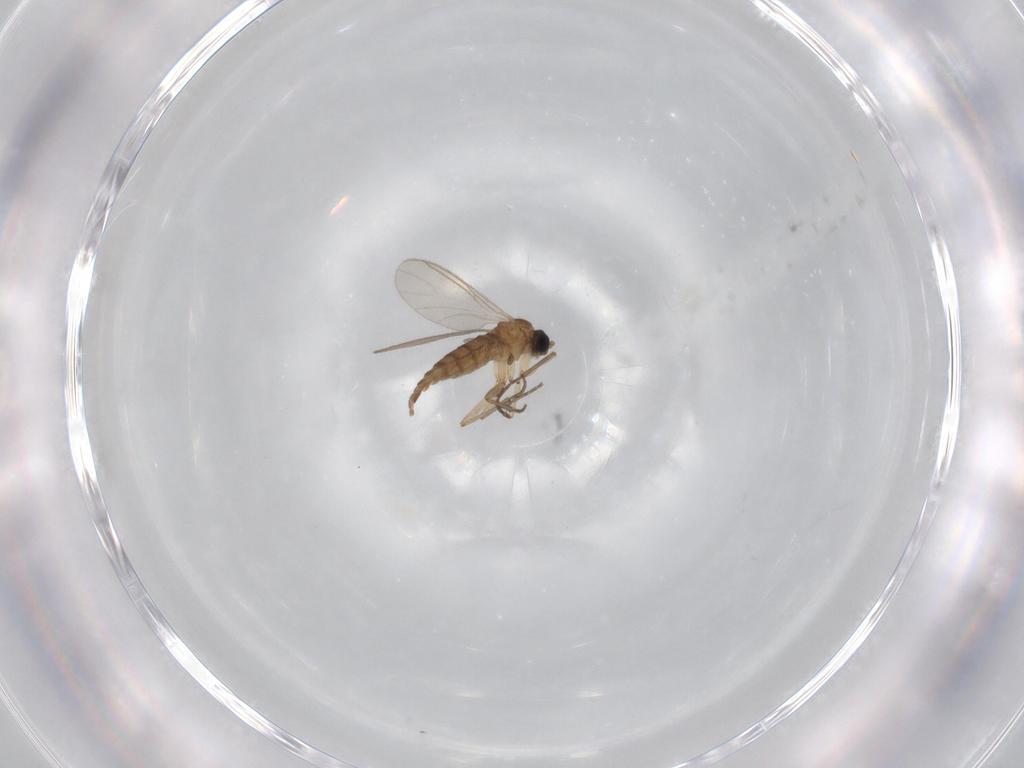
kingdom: Animalia
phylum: Arthropoda
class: Insecta
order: Diptera
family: Sciaridae
